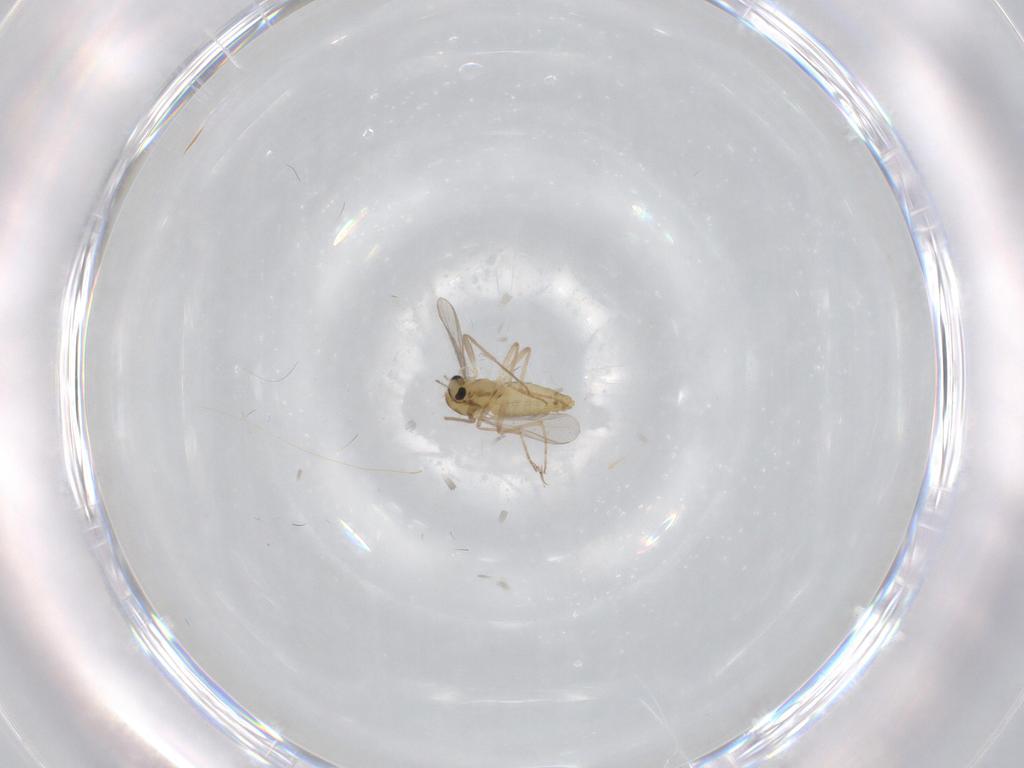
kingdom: Animalia
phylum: Arthropoda
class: Insecta
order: Diptera
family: Chironomidae
